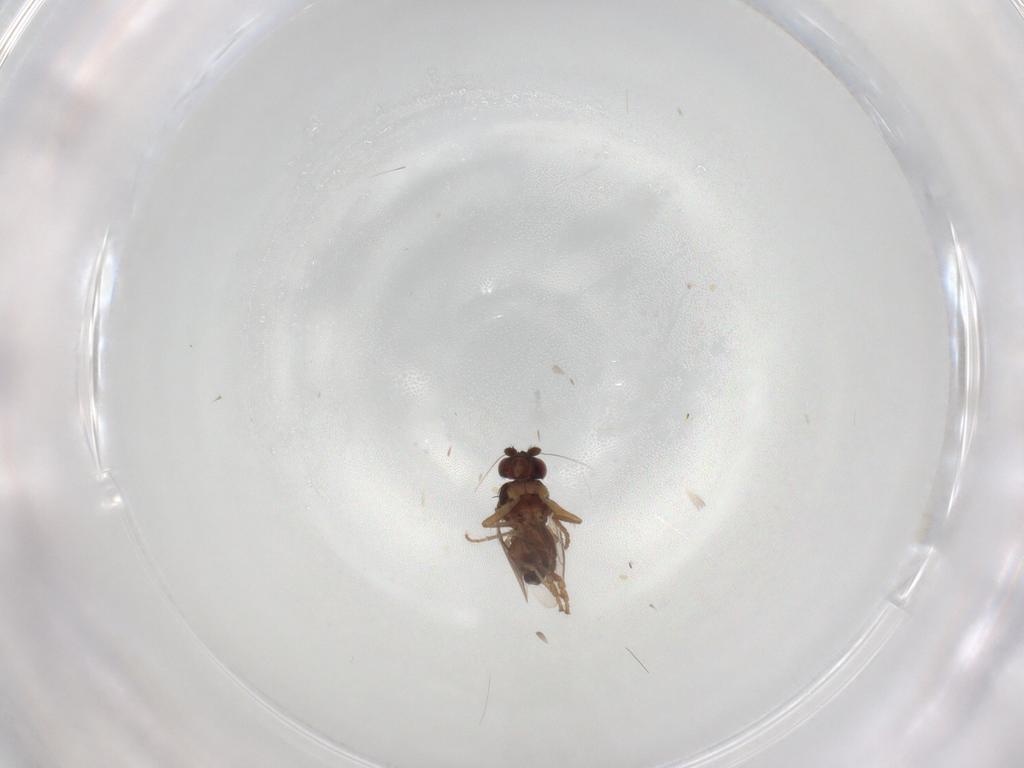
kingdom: Animalia
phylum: Arthropoda
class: Insecta
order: Diptera
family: Sphaeroceridae
